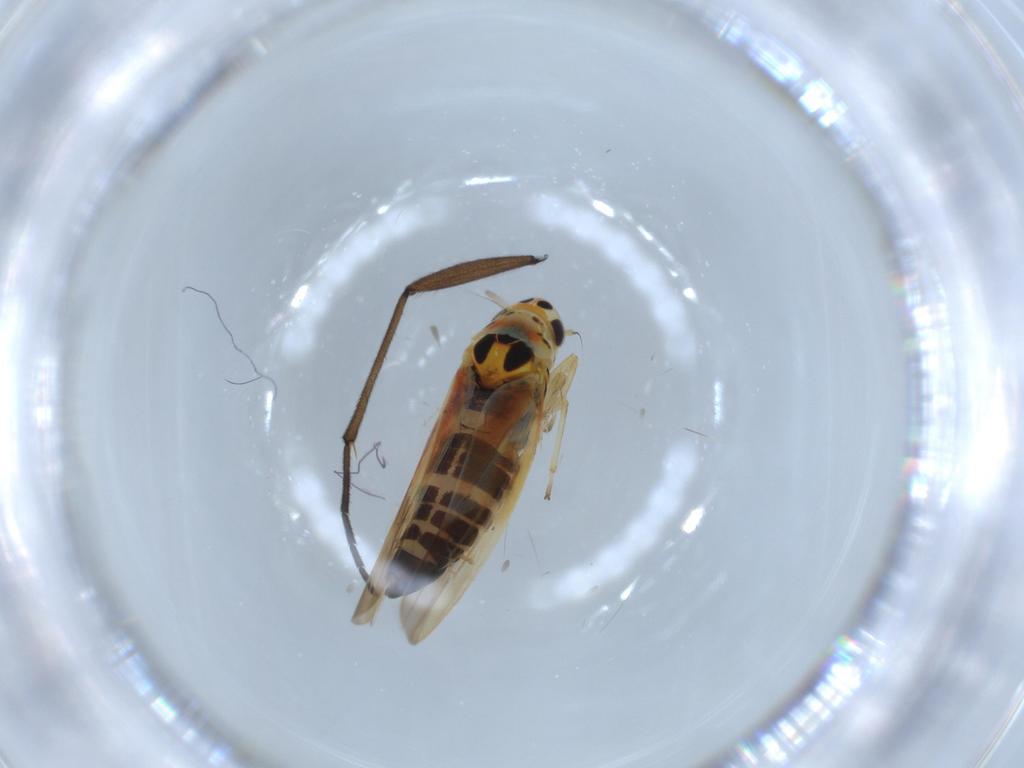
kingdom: Animalia
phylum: Arthropoda
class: Insecta
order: Hemiptera
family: Cicadellidae
